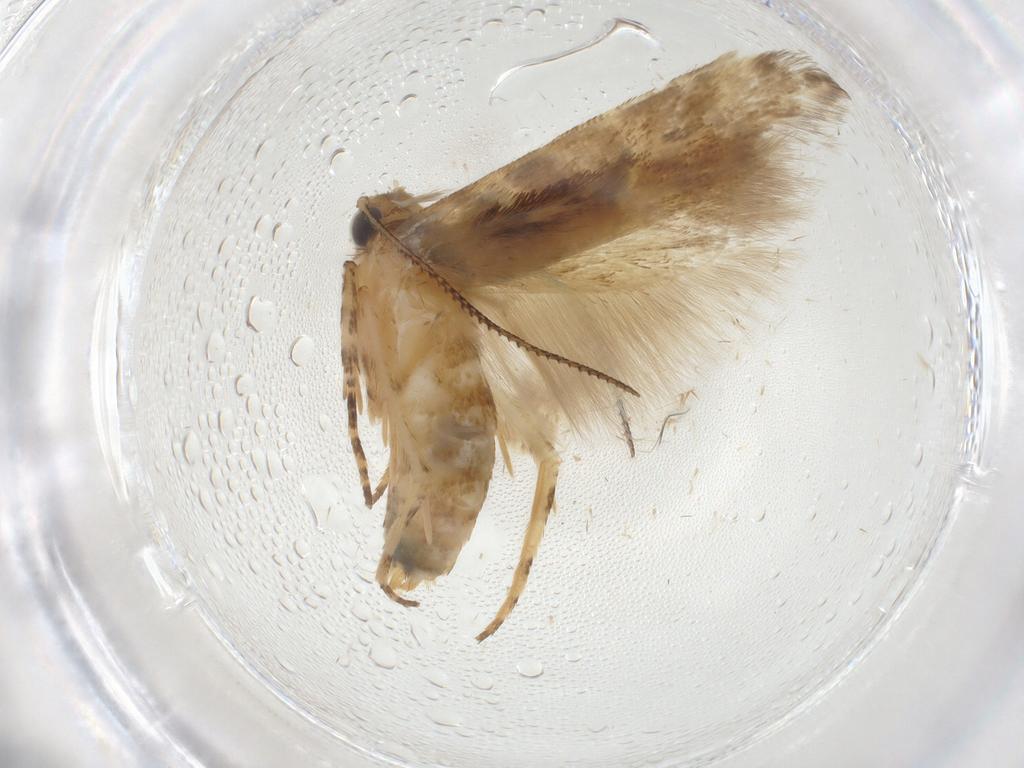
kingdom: Animalia
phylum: Arthropoda
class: Insecta
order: Lepidoptera
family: Gelechiidae
